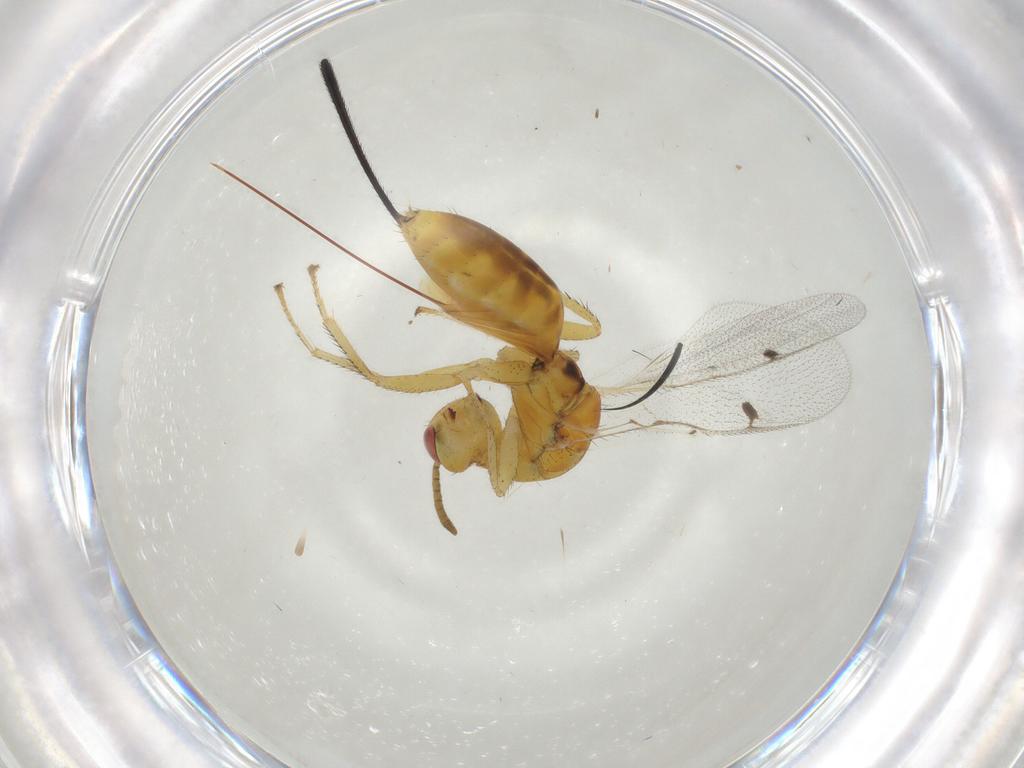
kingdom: Animalia
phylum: Arthropoda
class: Insecta
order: Hymenoptera
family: Megastigmidae
